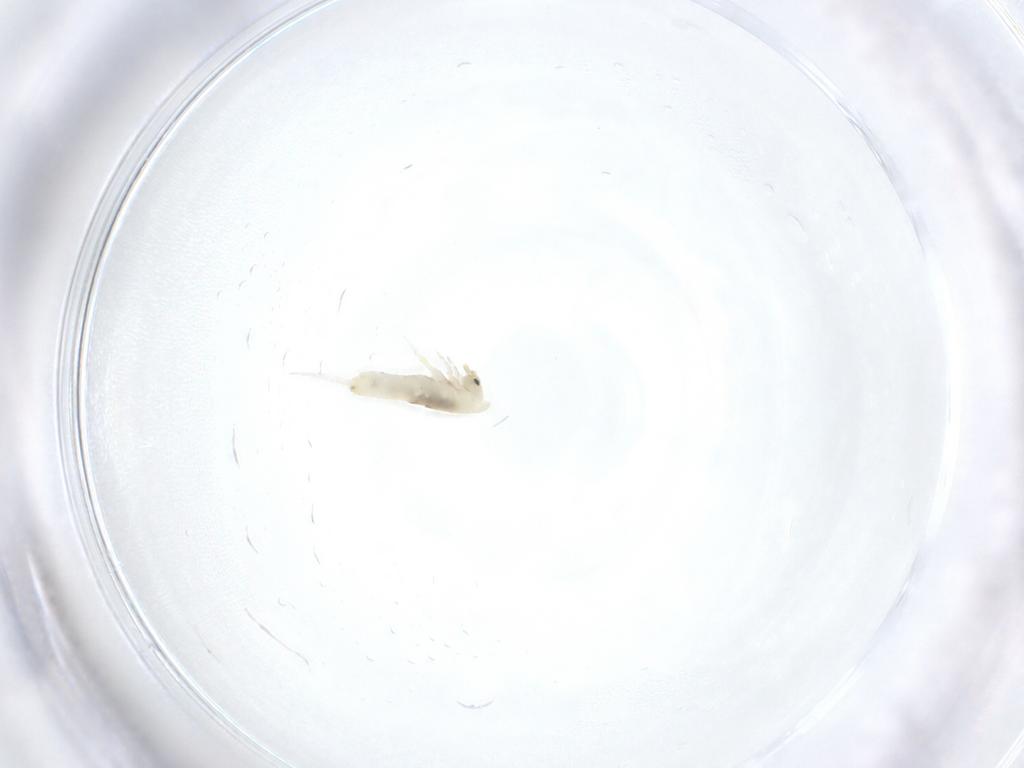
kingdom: Animalia
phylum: Arthropoda
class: Collembola
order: Entomobryomorpha
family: Entomobryidae
